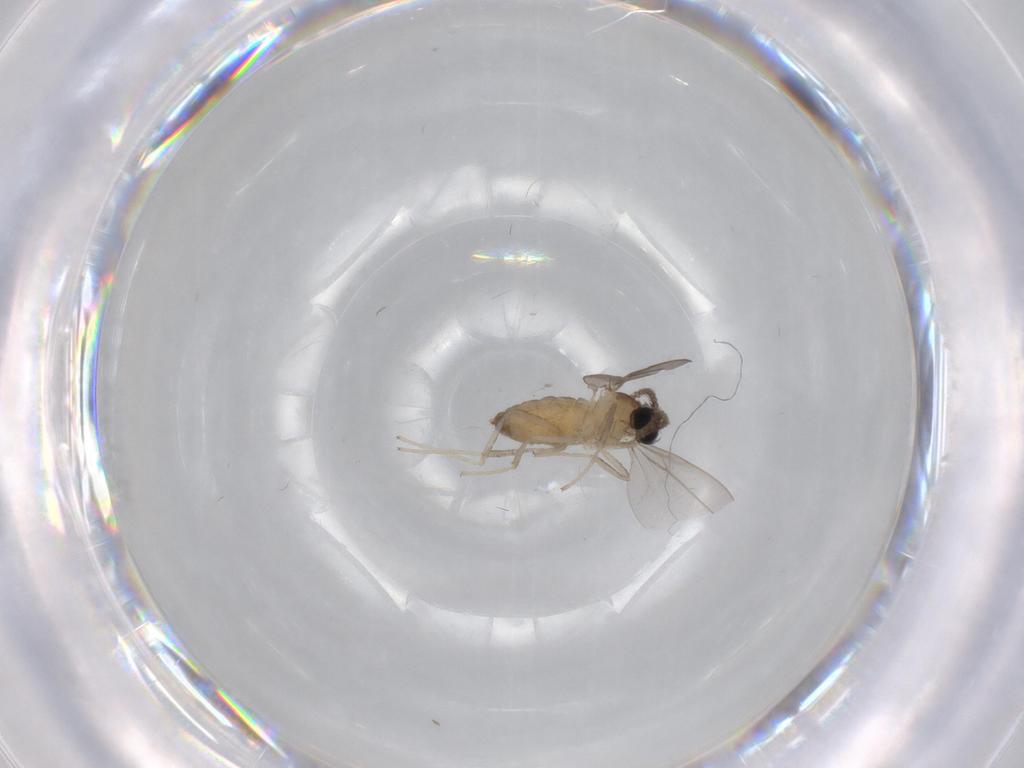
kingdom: Animalia
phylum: Arthropoda
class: Insecta
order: Diptera
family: Cecidomyiidae
